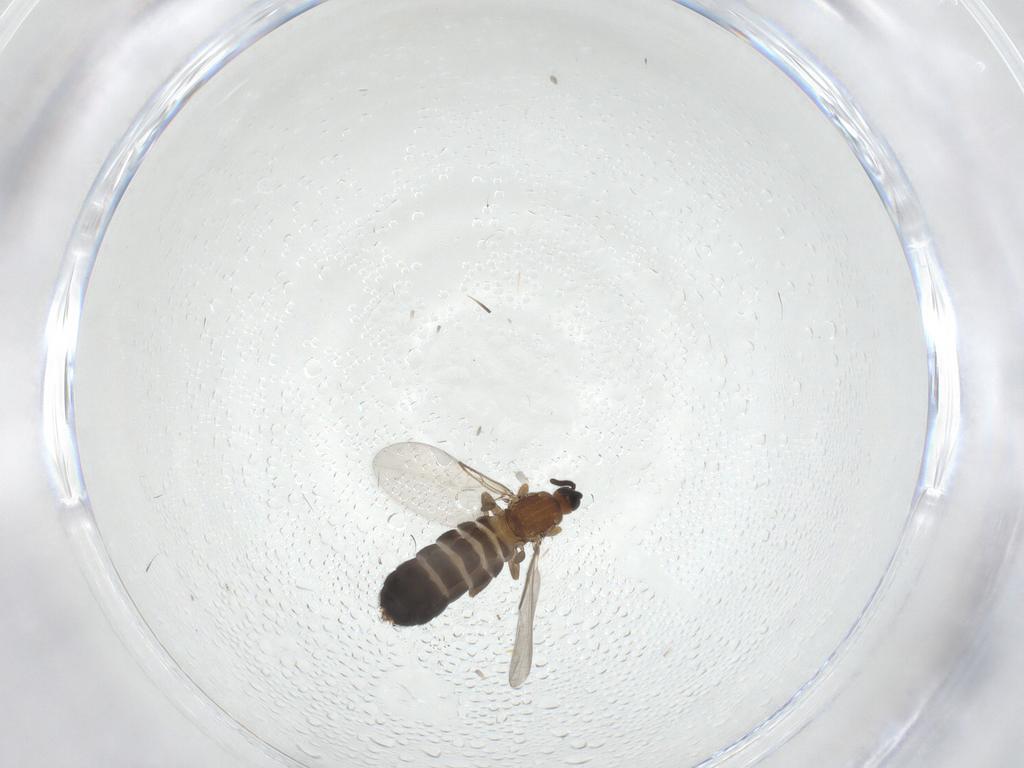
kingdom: Animalia
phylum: Arthropoda
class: Insecta
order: Diptera
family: Scatopsidae
